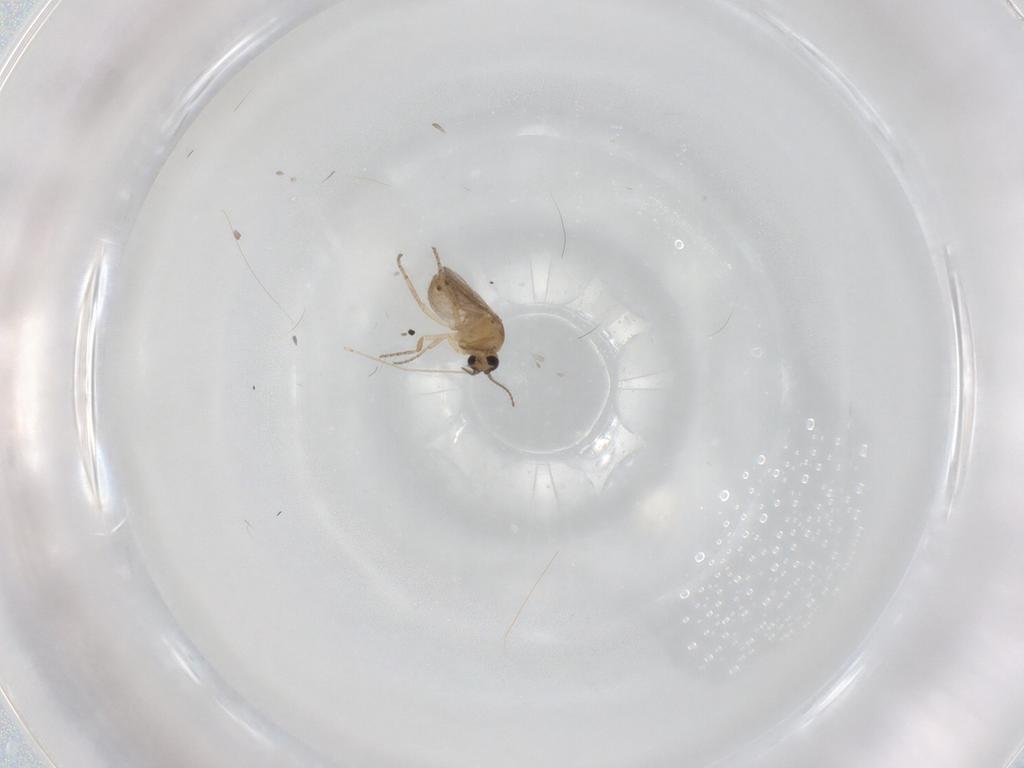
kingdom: Animalia
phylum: Arthropoda
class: Insecta
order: Diptera
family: Ceratopogonidae
